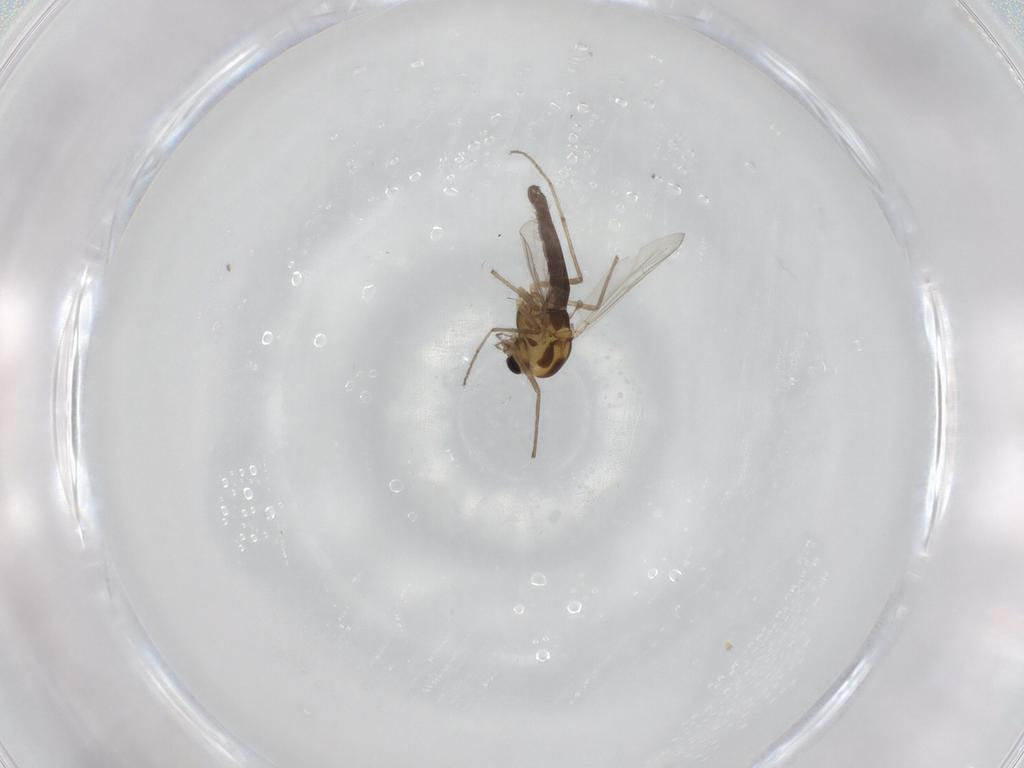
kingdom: Animalia
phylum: Arthropoda
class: Insecta
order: Diptera
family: Chironomidae
